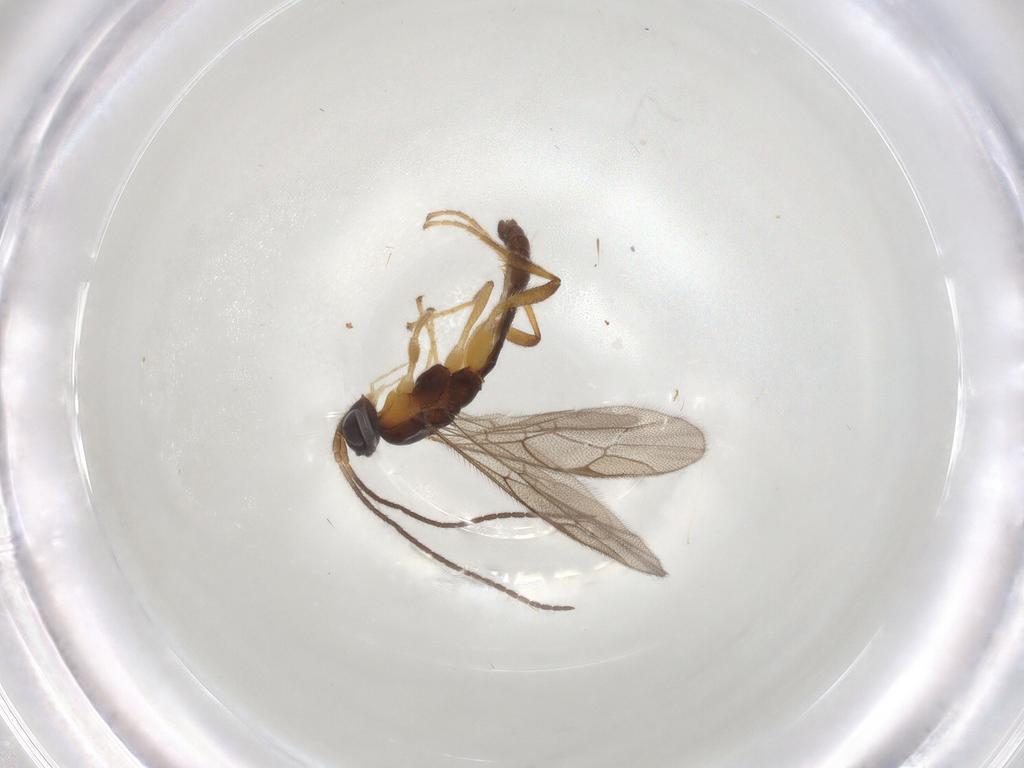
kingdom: Animalia
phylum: Arthropoda
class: Insecta
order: Hymenoptera
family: Ichneumonidae
